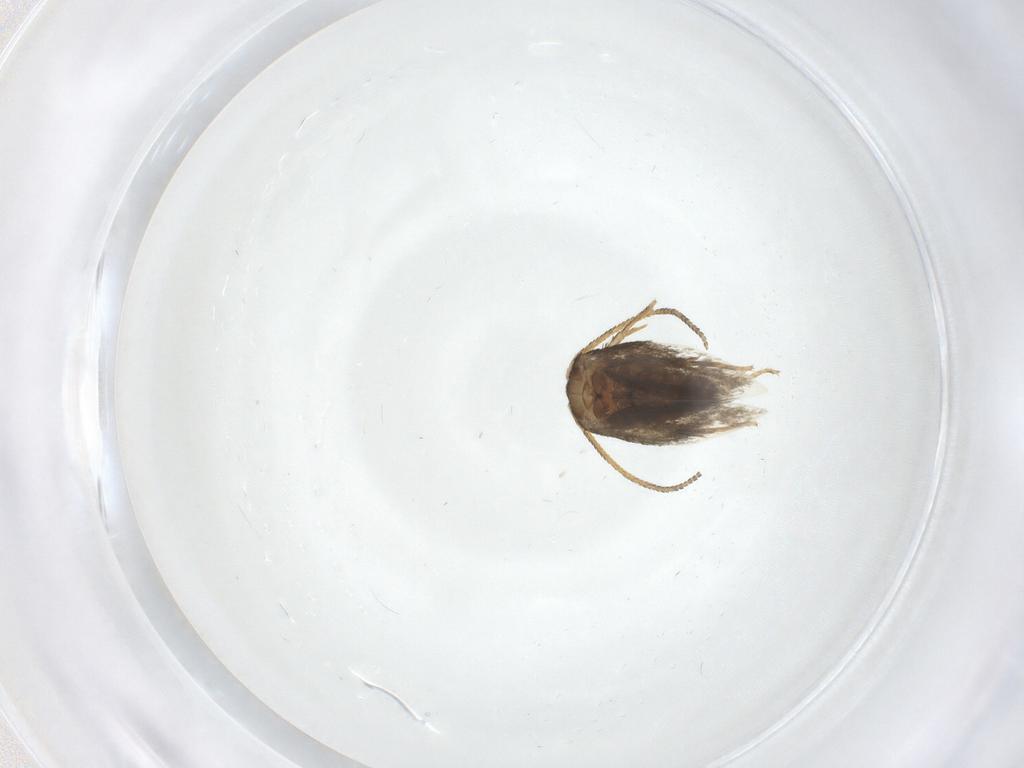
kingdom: Animalia
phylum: Arthropoda
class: Insecta
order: Lepidoptera
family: Nepticulidae
